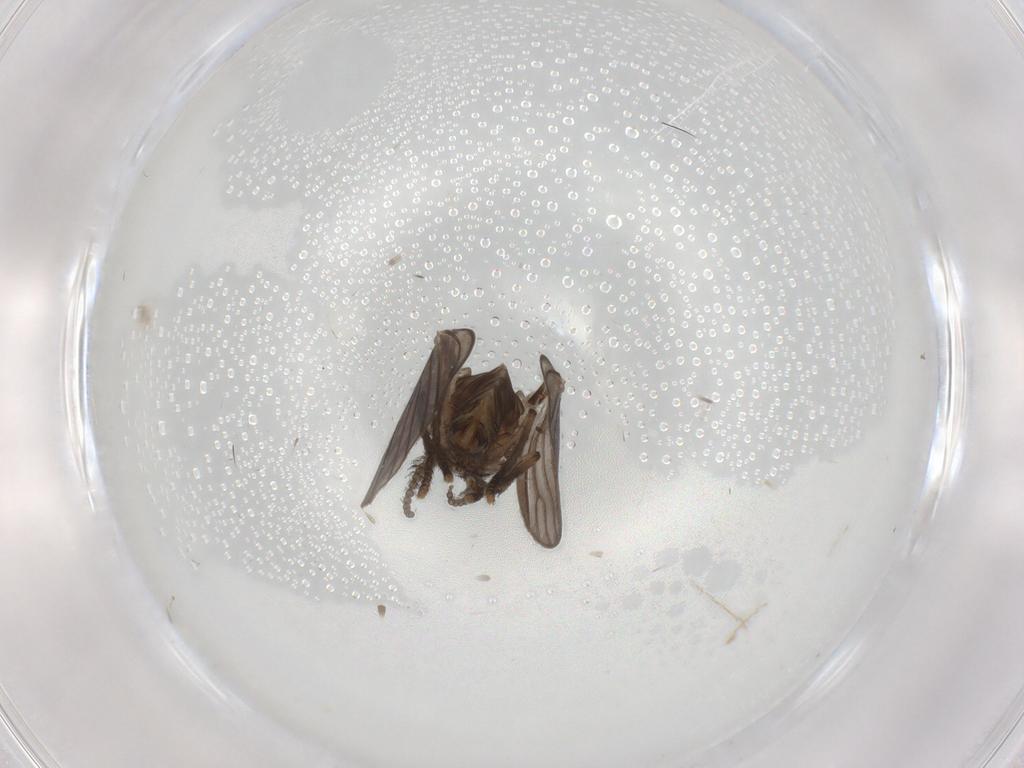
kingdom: Animalia
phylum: Arthropoda
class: Insecta
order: Diptera
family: Psychodidae
